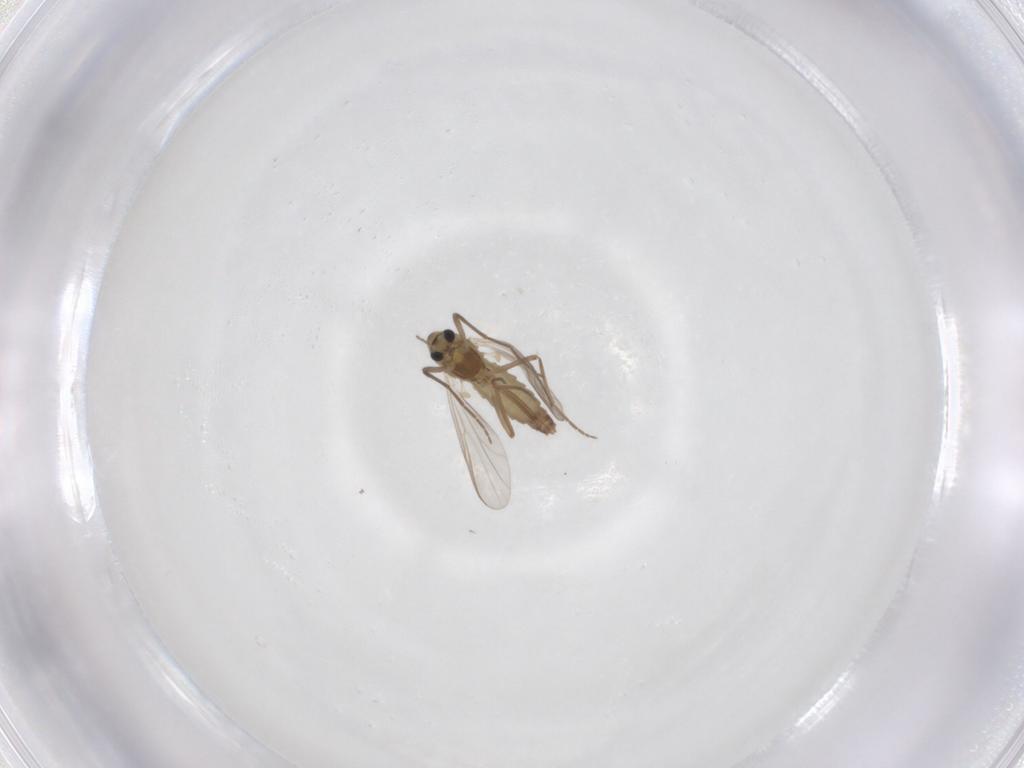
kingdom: Animalia
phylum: Arthropoda
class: Insecta
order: Diptera
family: Chironomidae
